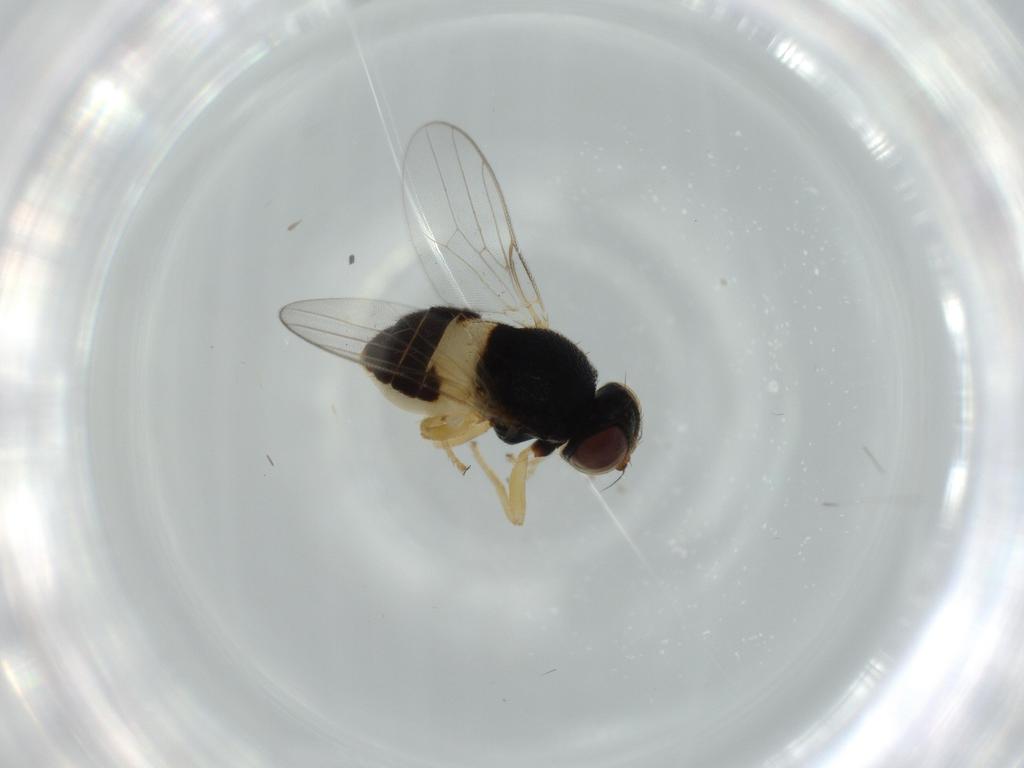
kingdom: Animalia
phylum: Arthropoda
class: Insecta
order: Diptera
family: Chloropidae
